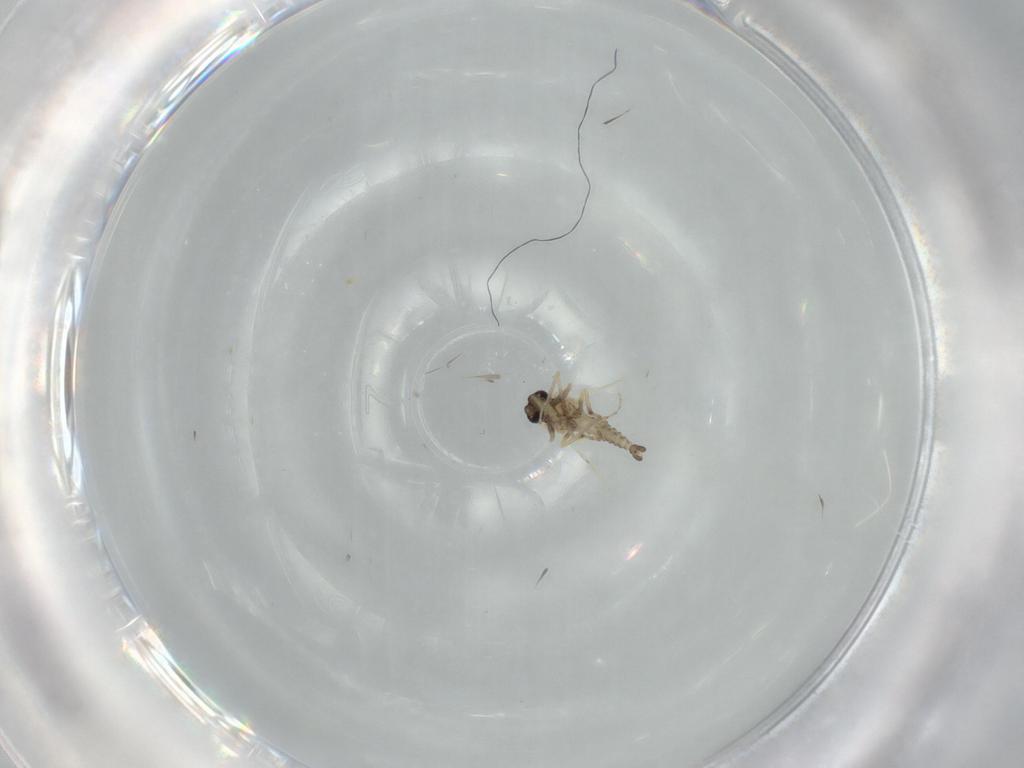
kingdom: Animalia
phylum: Arthropoda
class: Insecta
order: Diptera
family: Ceratopogonidae
